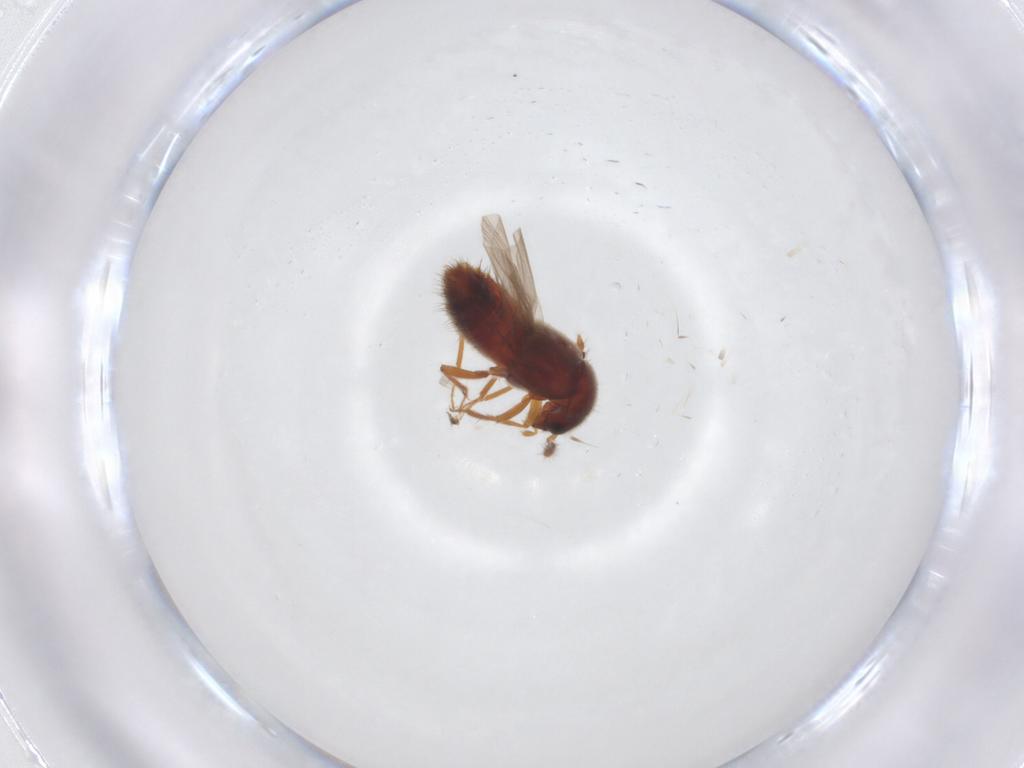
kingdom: Animalia
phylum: Arthropoda
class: Insecta
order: Coleoptera
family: Staphylinidae
